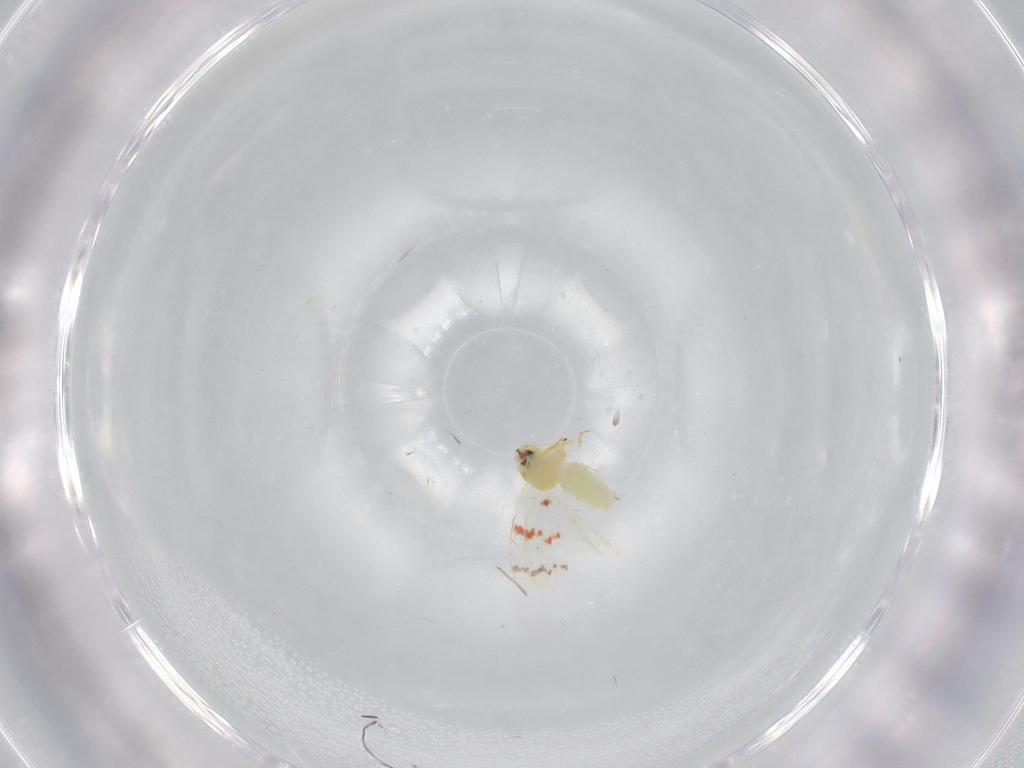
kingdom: Animalia
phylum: Arthropoda
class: Insecta
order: Hemiptera
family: Aleyrodidae
